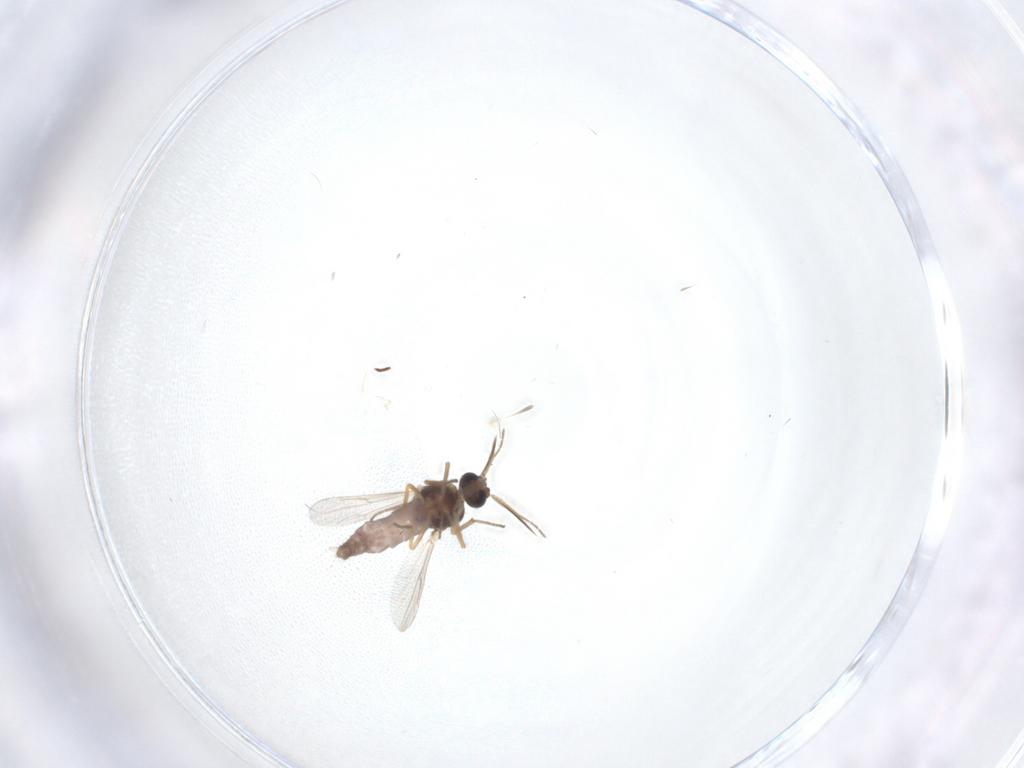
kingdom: Animalia
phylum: Arthropoda
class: Insecta
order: Diptera
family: Ceratopogonidae
